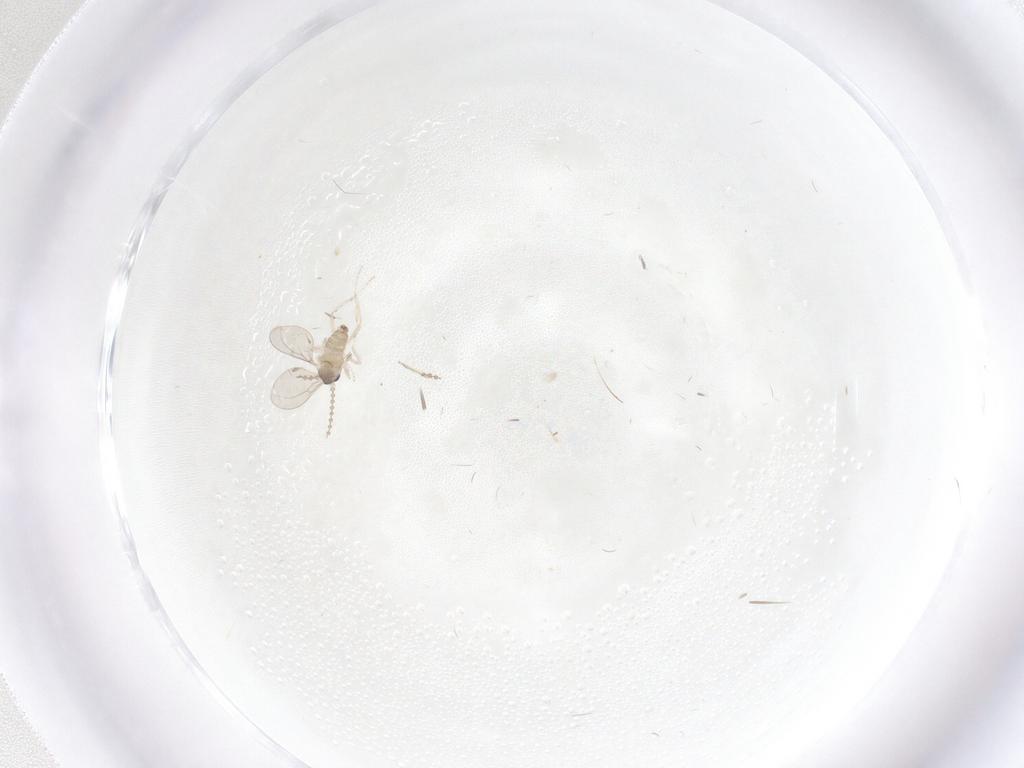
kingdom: Animalia
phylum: Arthropoda
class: Insecta
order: Diptera
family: Cecidomyiidae
